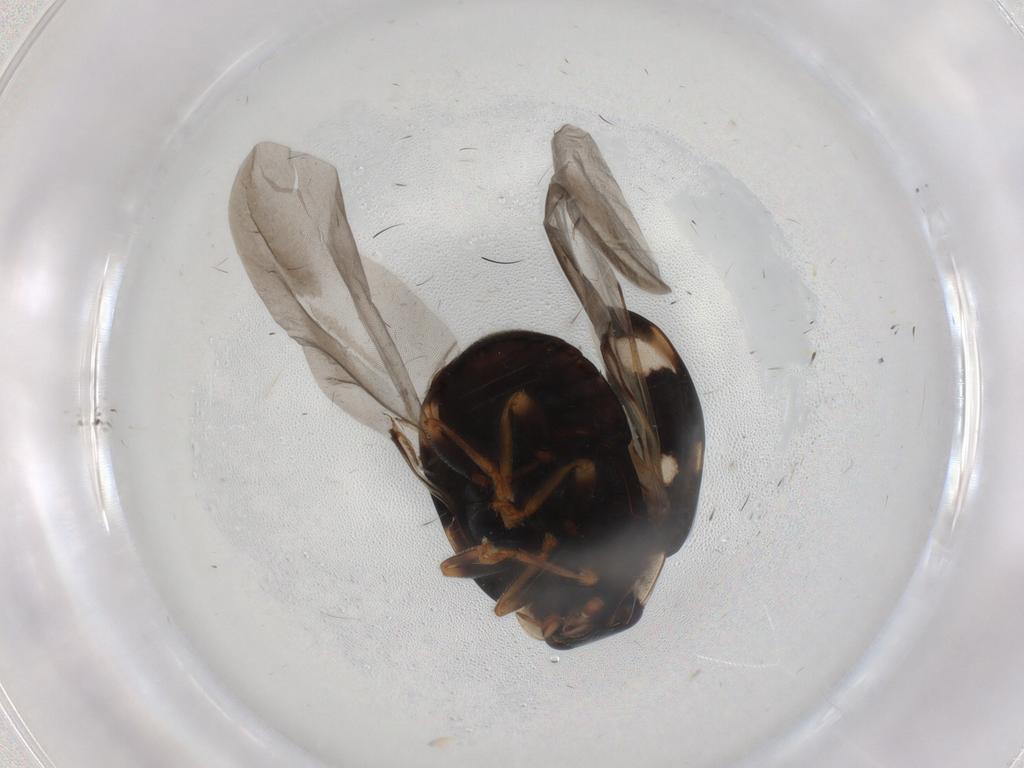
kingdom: Animalia
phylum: Arthropoda
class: Insecta
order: Coleoptera
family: Coccinellidae
